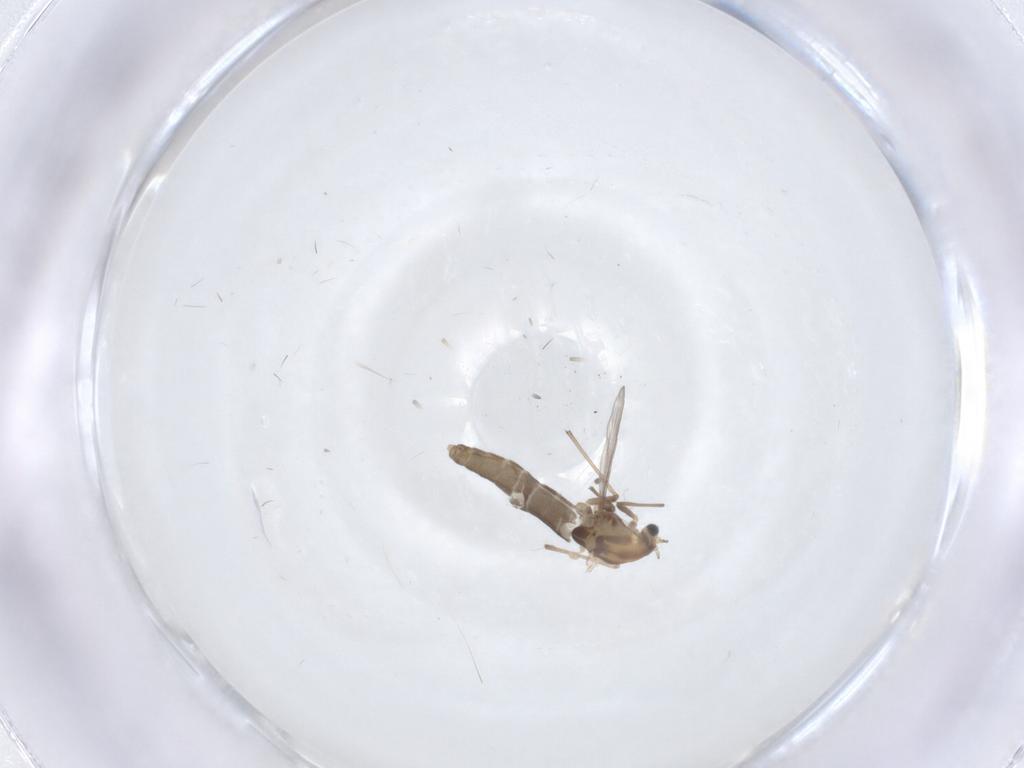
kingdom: Animalia
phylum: Arthropoda
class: Insecta
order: Diptera
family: Chironomidae
